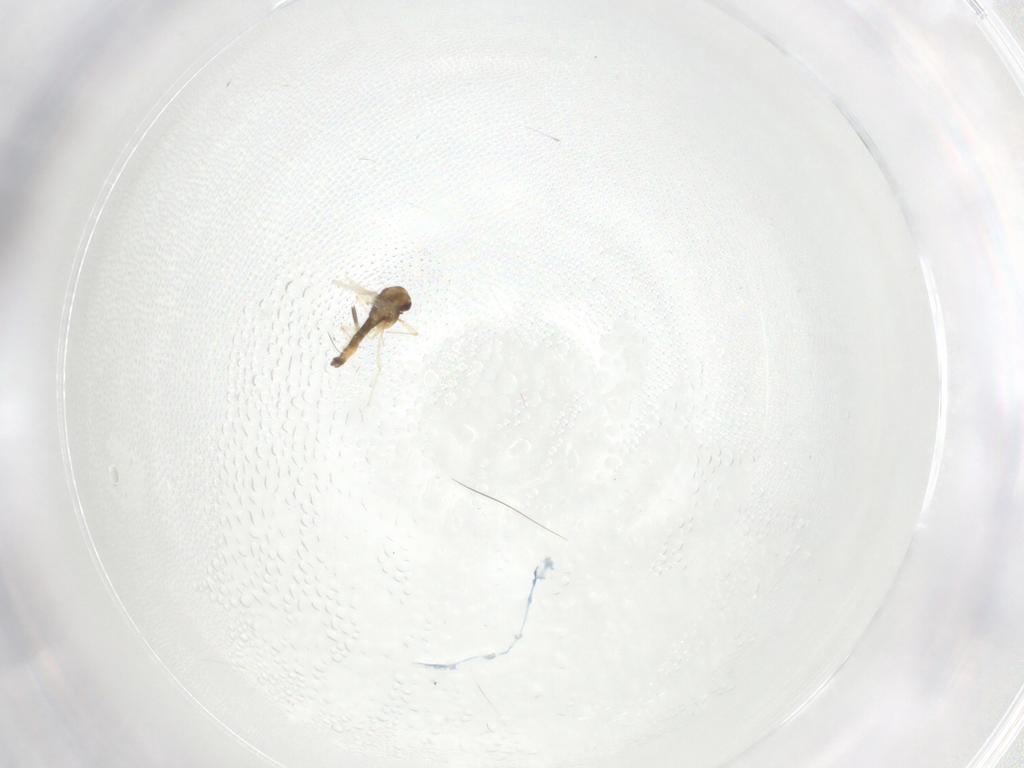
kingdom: Animalia
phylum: Arthropoda
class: Insecta
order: Diptera
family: Chironomidae
